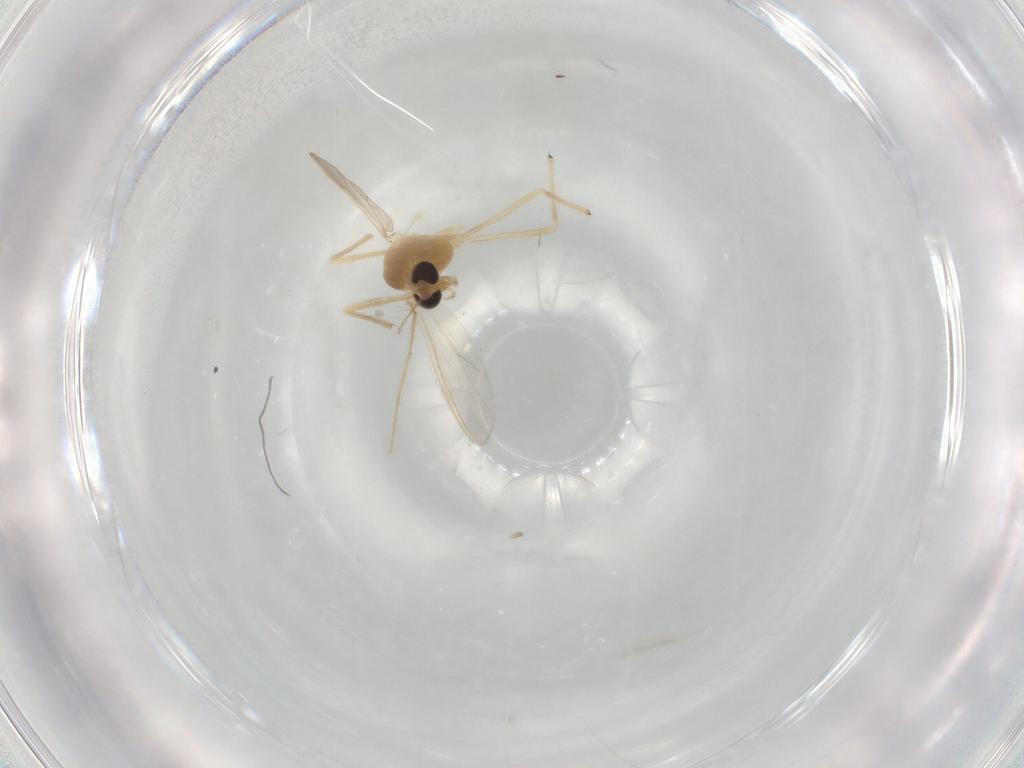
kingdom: Animalia
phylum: Arthropoda
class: Insecta
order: Diptera
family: Chironomidae
